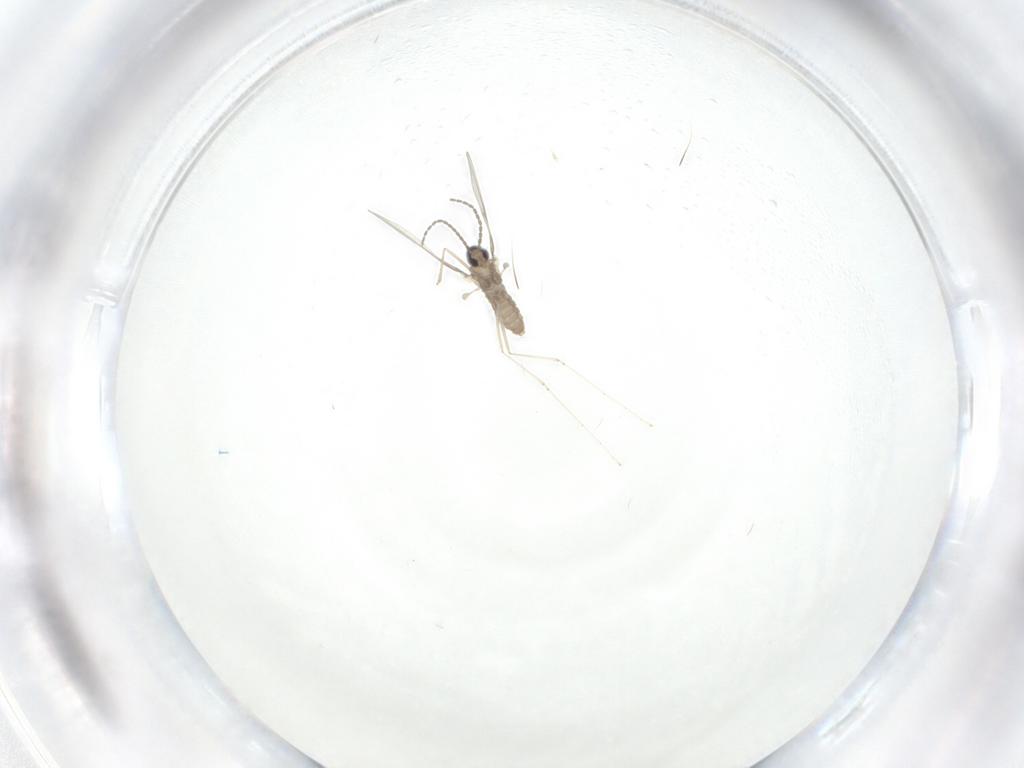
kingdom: Animalia
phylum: Arthropoda
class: Insecta
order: Diptera
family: Cecidomyiidae
